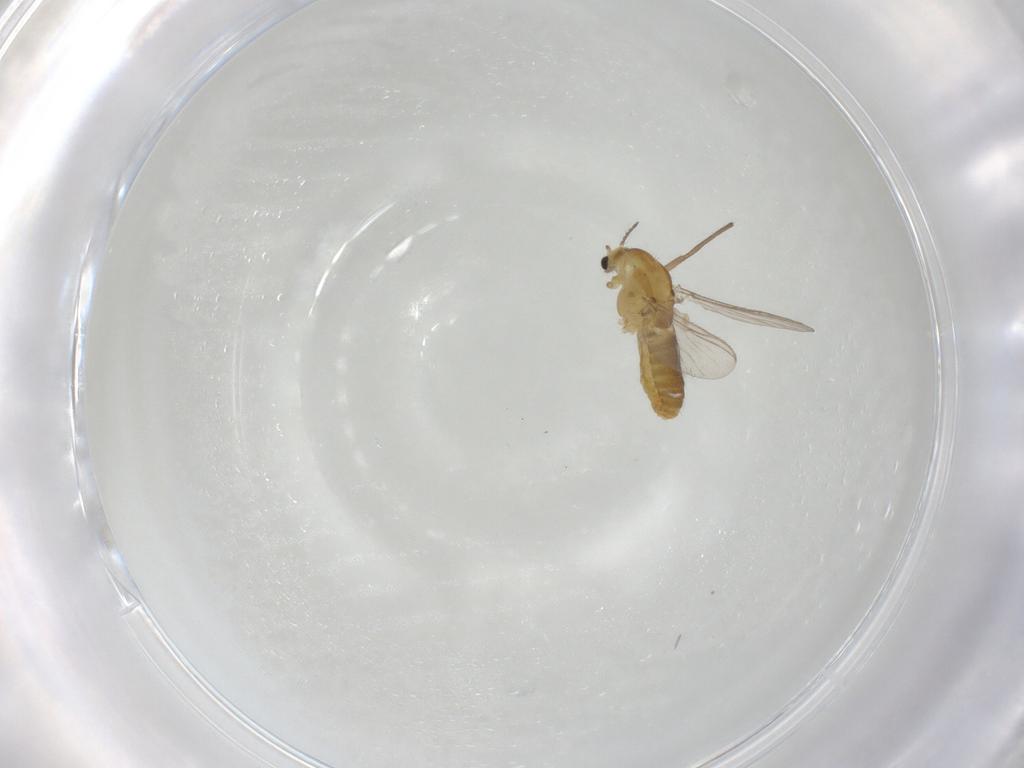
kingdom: Animalia
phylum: Arthropoda
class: Insecta
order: Diptera
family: Chironomidae
